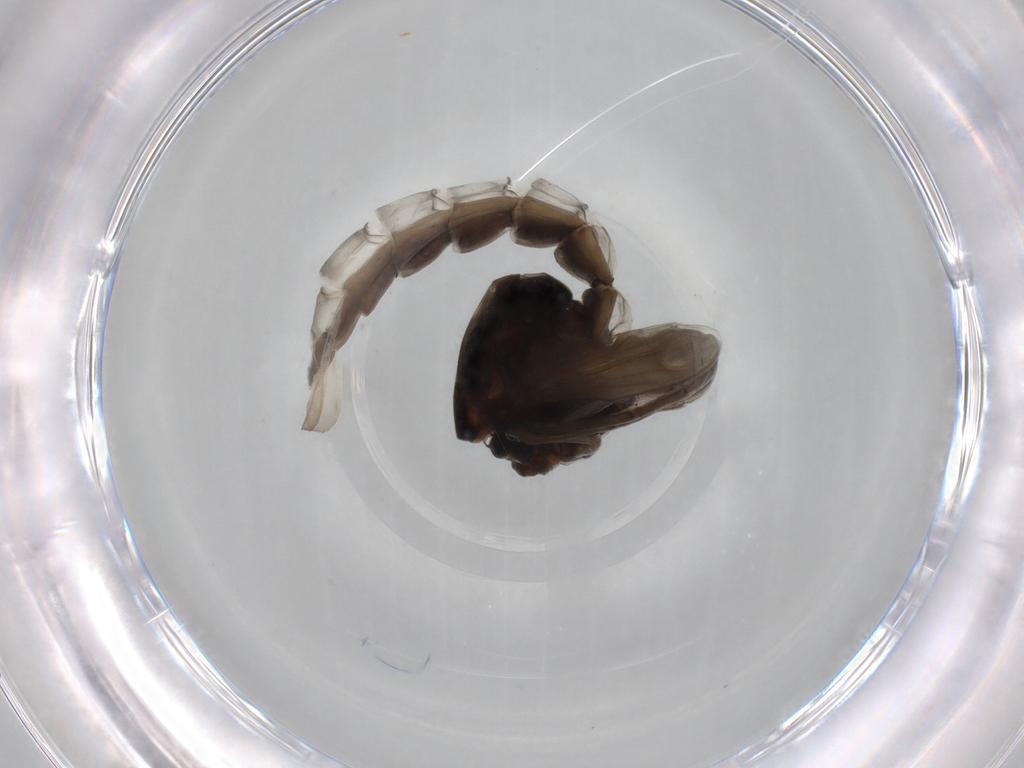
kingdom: Animalia
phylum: Arthropoda
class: Insecta
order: Diptera
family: Chironomidae
